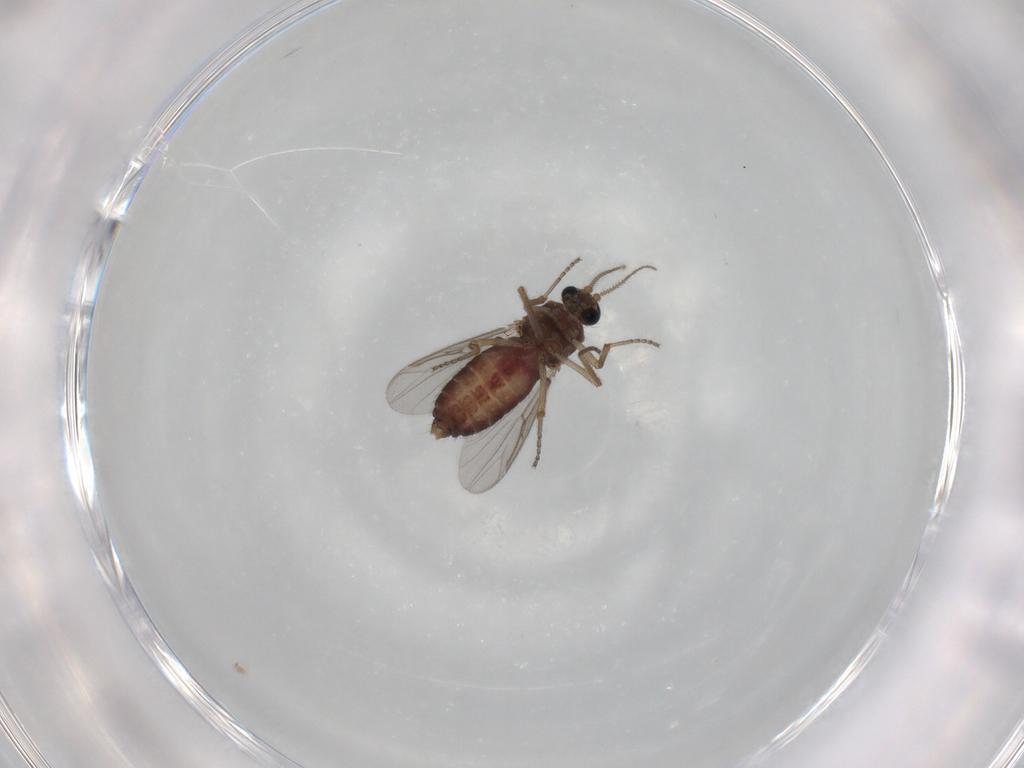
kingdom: Animalia
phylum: Arthropoda
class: Insecta
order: Diptera
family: Ceratopogonidae
